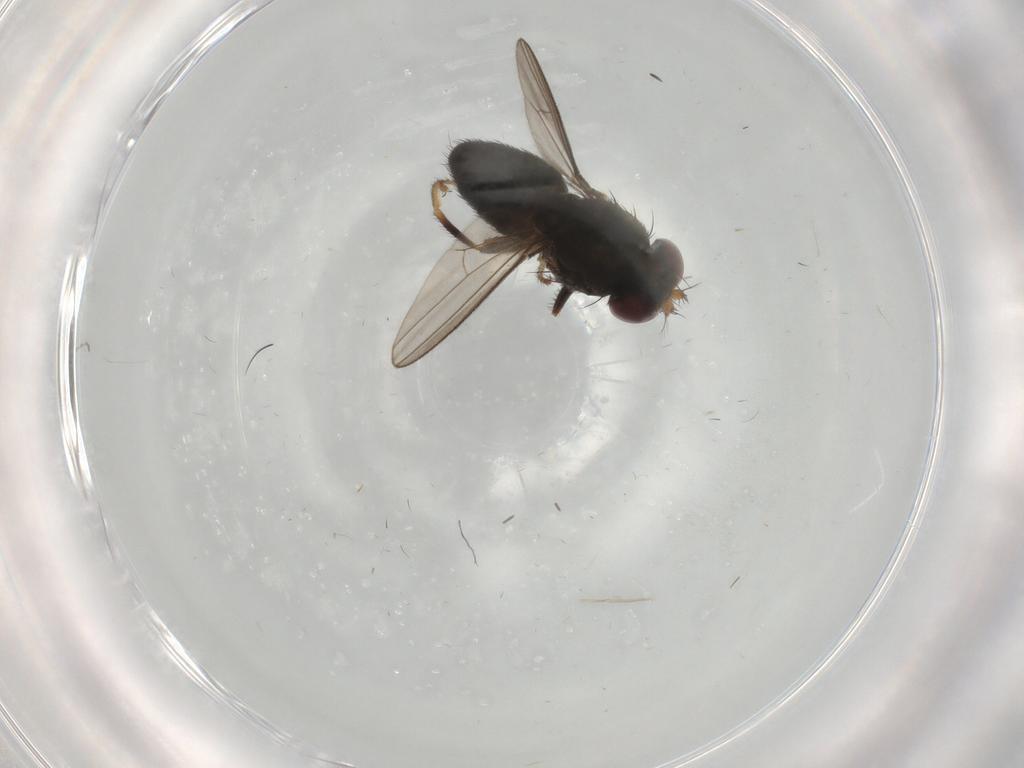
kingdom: Animalia
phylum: Arthropoda
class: Insecta
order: Diptera
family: Ephydridae
